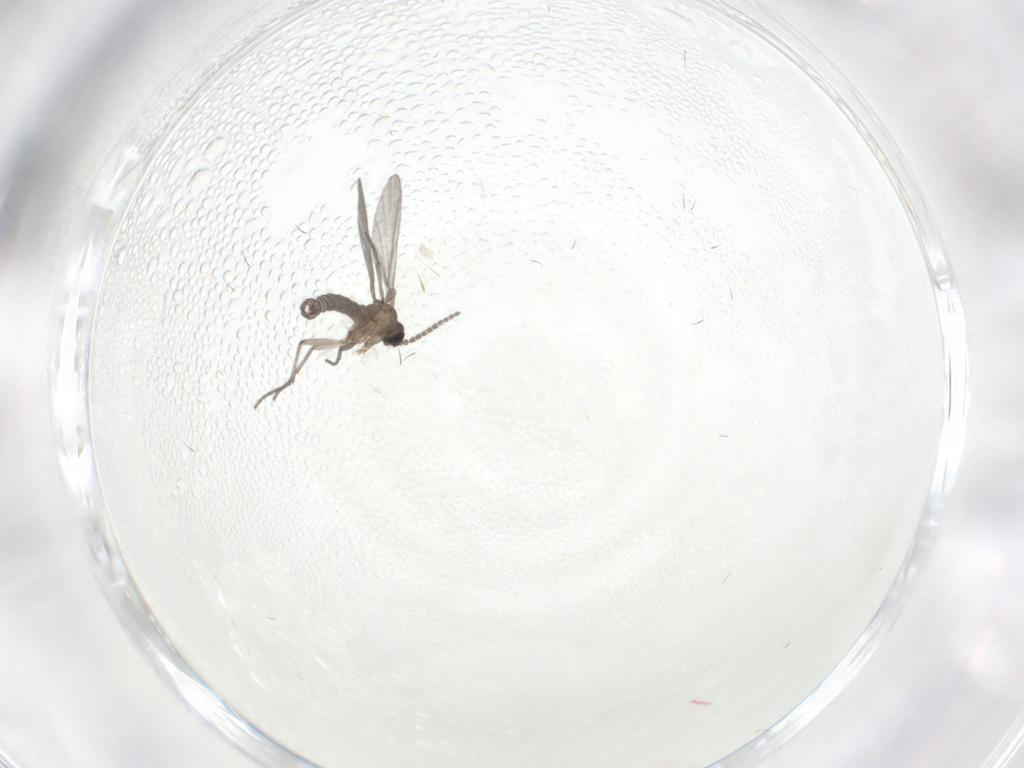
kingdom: Animalia
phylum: Arthropoda
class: Insecta
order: Diptera
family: Sciaridae
